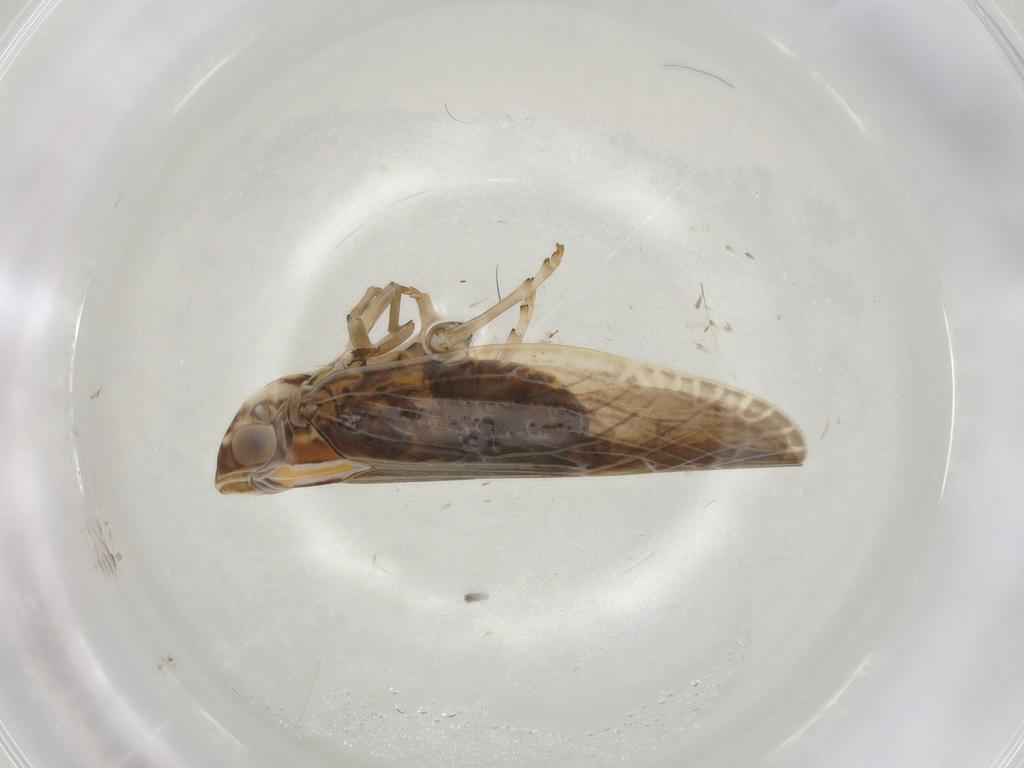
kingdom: Animalia
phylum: Arthropoda
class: Insecta
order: Hemiptera
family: Achilidae
